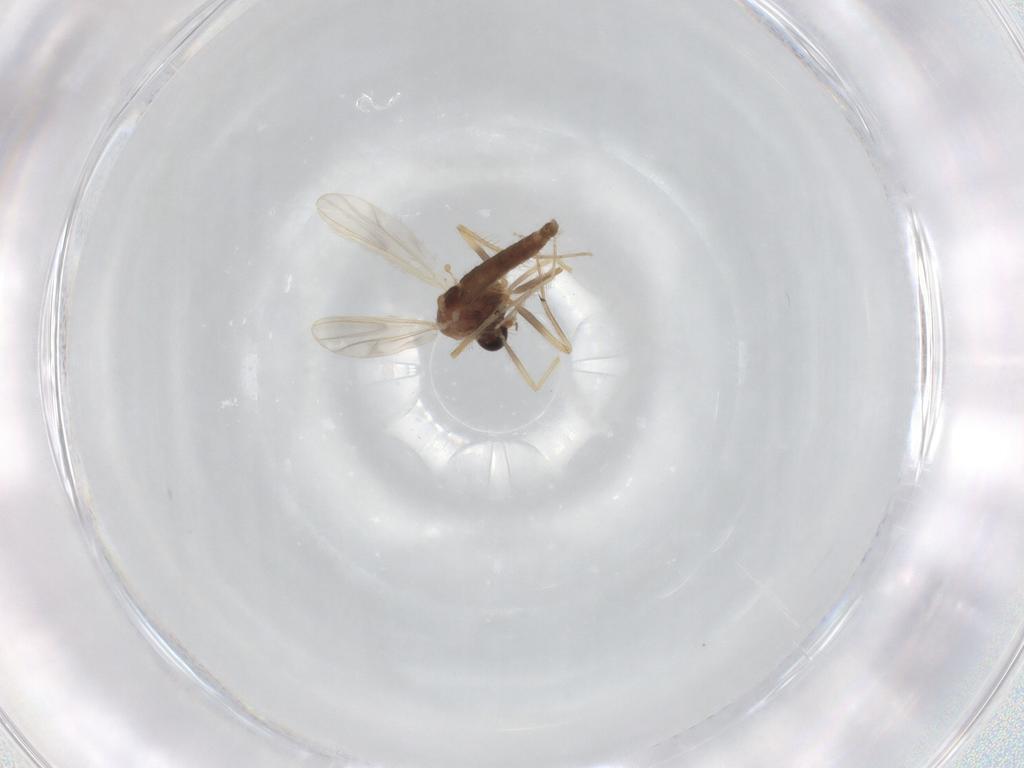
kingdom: Animalia
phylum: Arthropoda
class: Insecta
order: Diptera
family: Chironomidae
